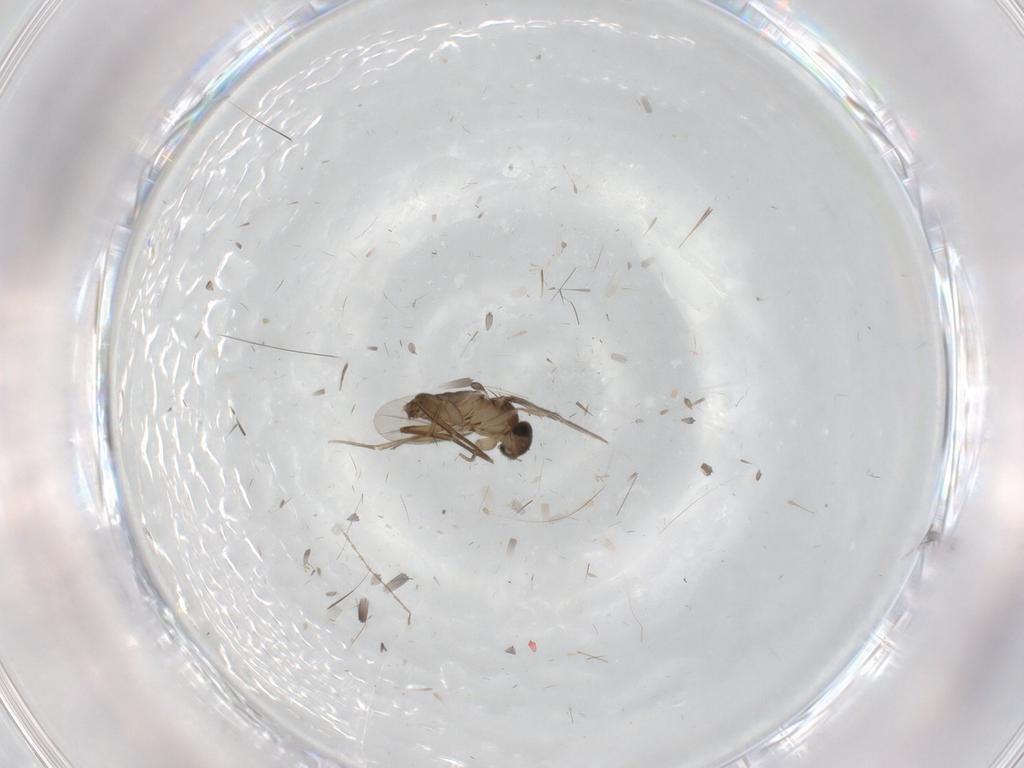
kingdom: Animalia
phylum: Arthropoda
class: Insecta
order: Diptera
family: Phoridae
